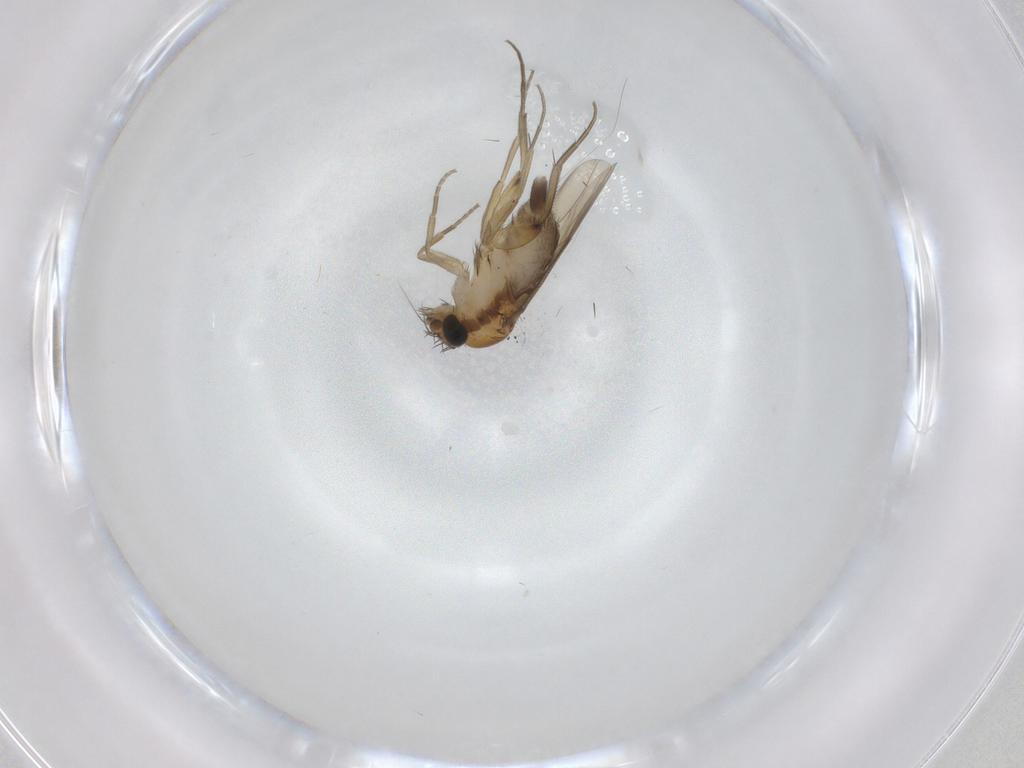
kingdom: Animalia
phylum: Arthropoda
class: Insecta
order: Diptera
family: Phoridae
